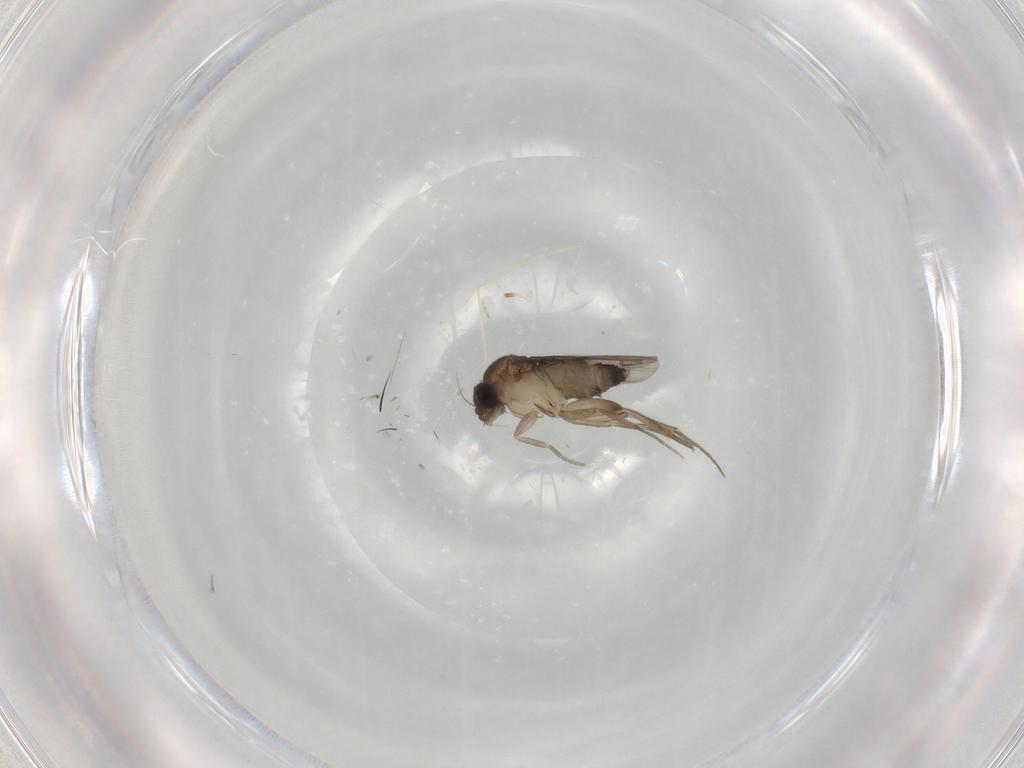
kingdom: Animalia
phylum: Arthropoda
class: Insecta
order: Diptera
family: Phoridae
